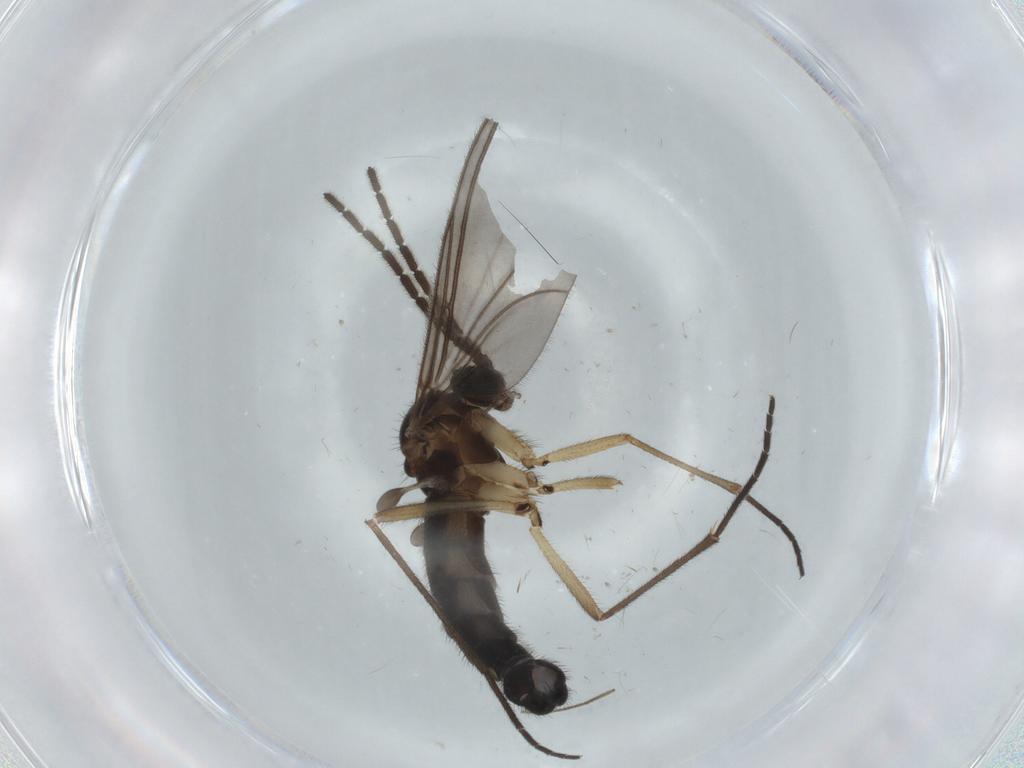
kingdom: Animalia
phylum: Arthropoda
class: Insecta
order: Diptera
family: Sciaridae
